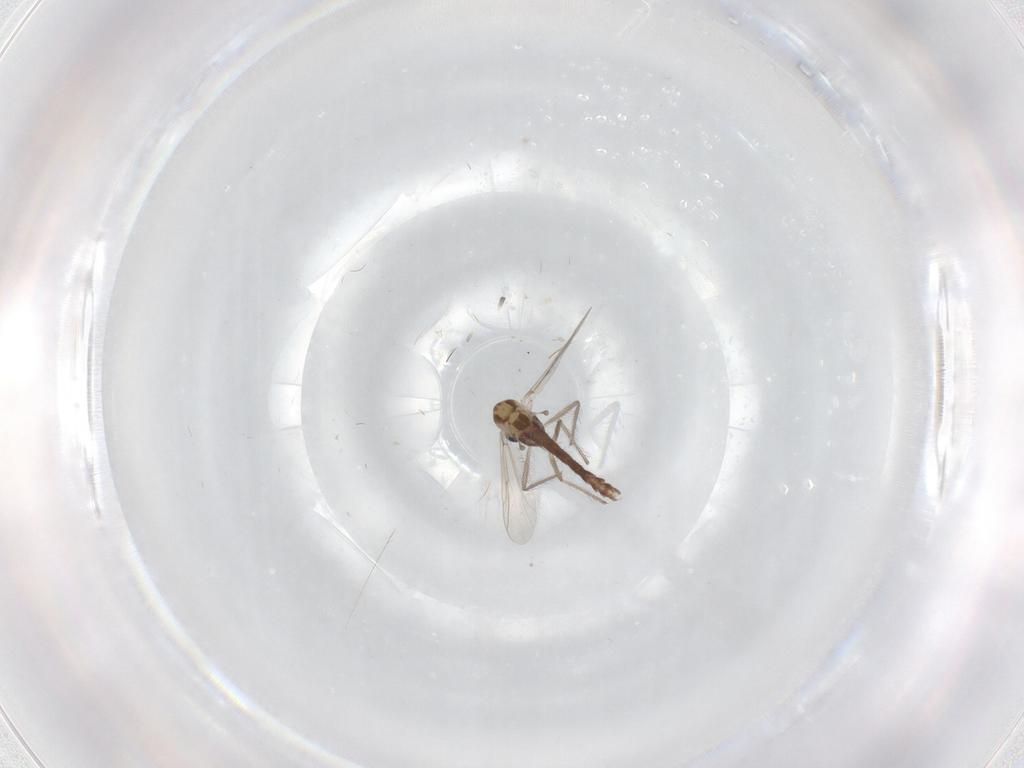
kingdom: Animalia
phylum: Arthropoda
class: Insecta
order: Diptera
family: Chironomidae
